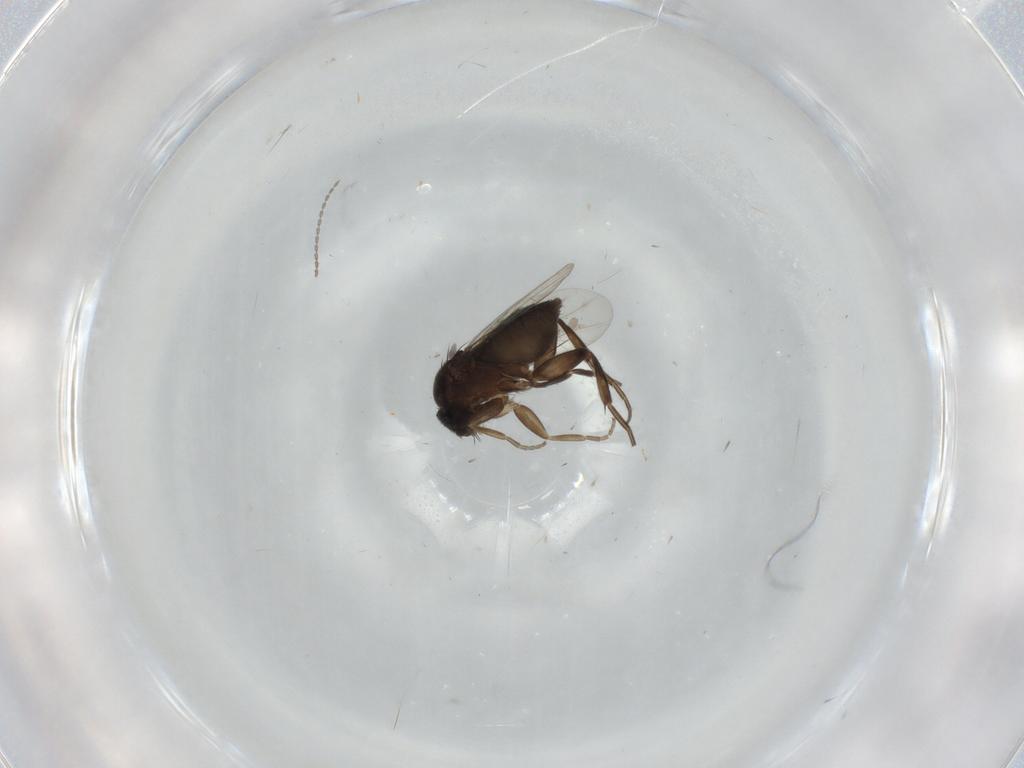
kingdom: Animalia
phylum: Arthropoda
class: Insecta
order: Diptera
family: Phoridae
